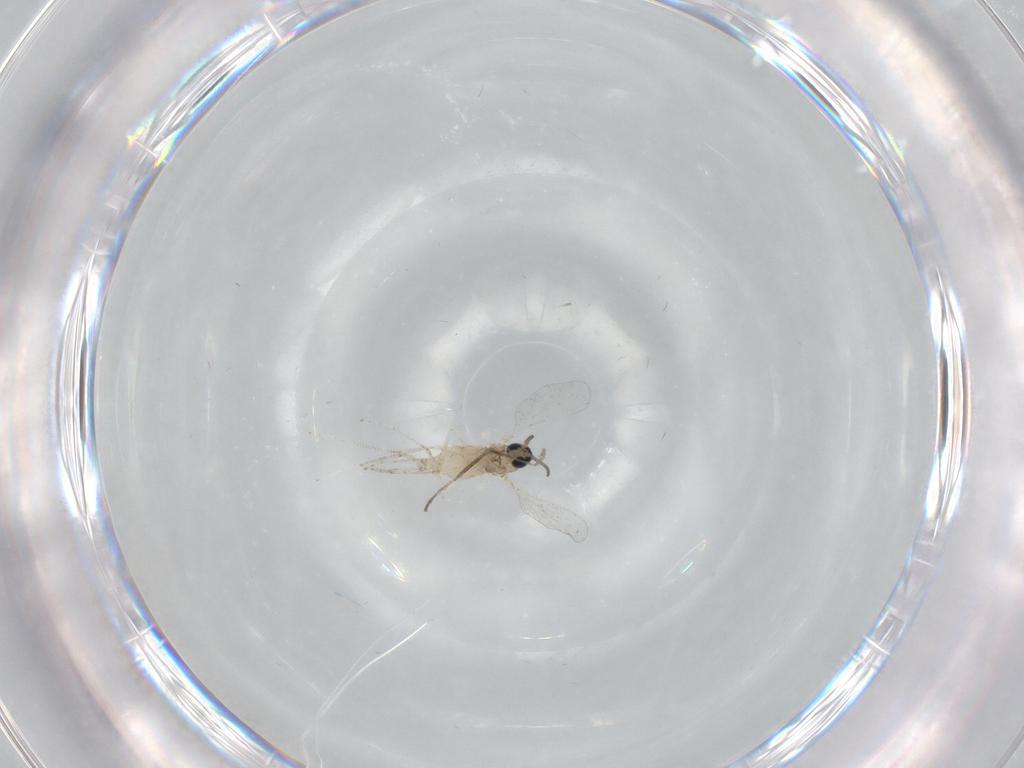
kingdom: Animalia
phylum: Arthropoda
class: Insecta
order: Diptera
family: Cecidomyiidae
